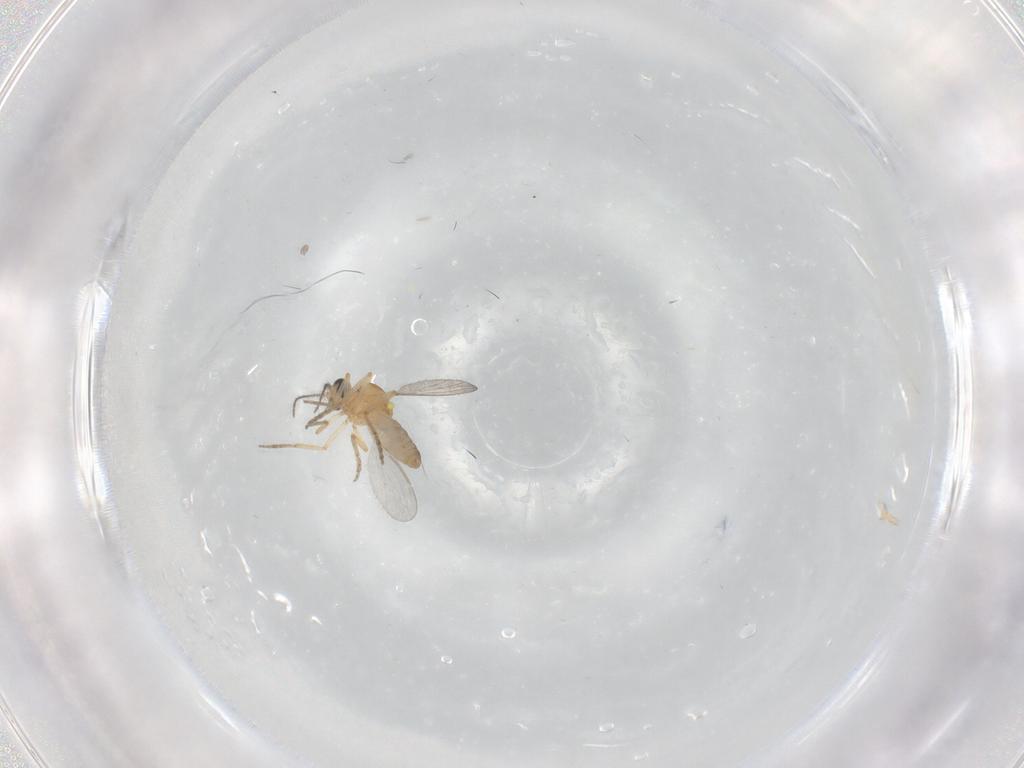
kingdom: Animalia
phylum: Arthropoda
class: Insecta
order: Diptera
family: Ceratopogonidae
